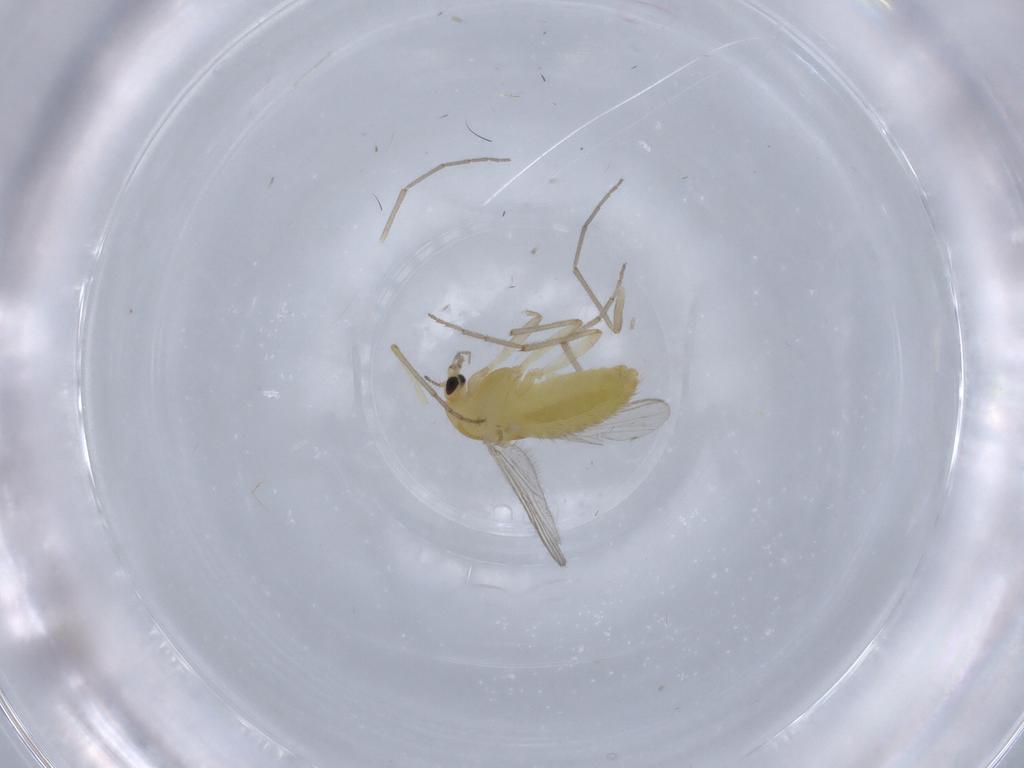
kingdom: Animalia
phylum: Arthropoda
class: Insecta
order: Diptera
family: Chironomidae
